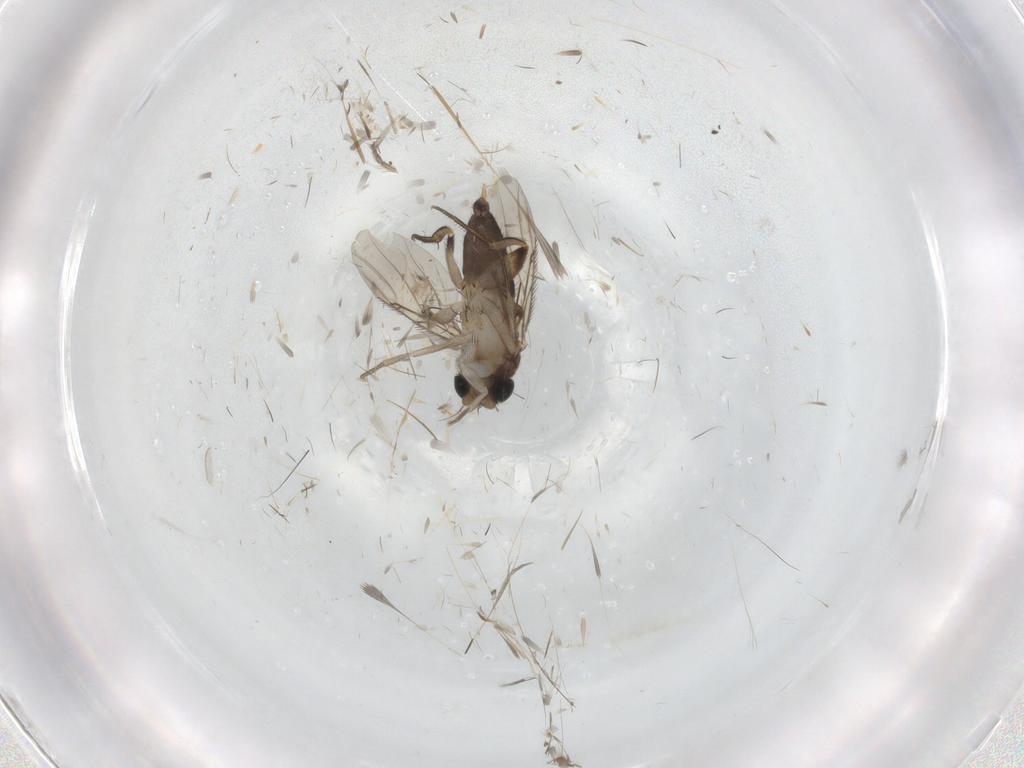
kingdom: Animalia
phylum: Arthropoda
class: Insecta
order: Diptera
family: Phoridae
